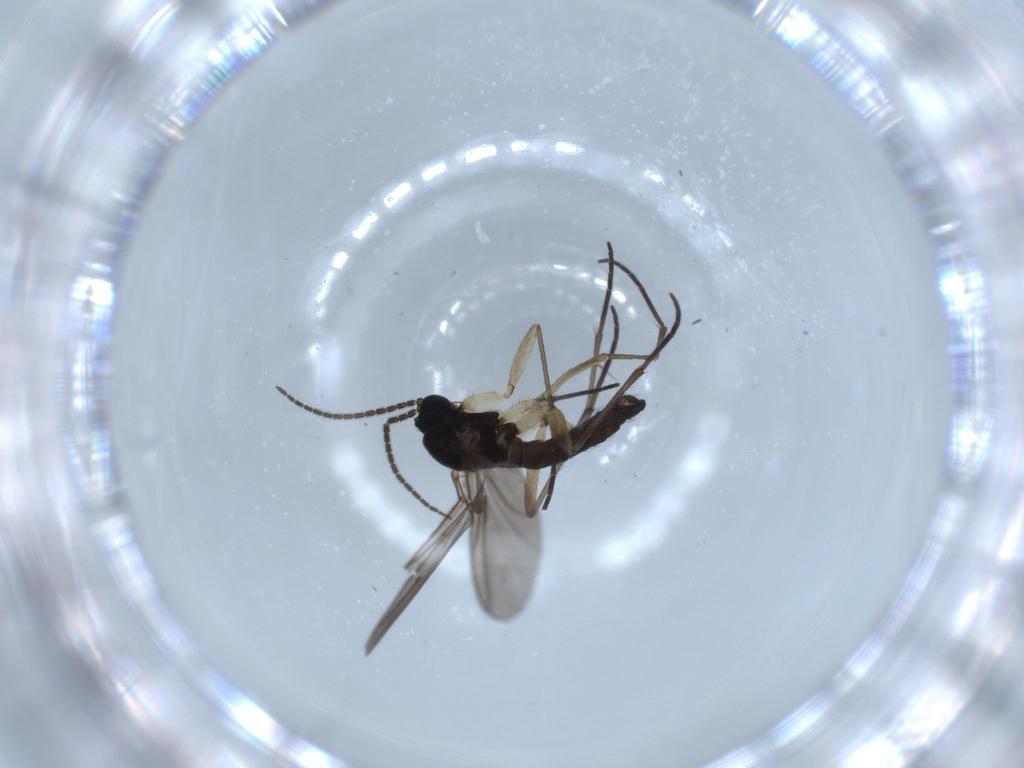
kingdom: Animalia
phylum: Arthropoda
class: Insecta
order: Diptera
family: Sciaridae
